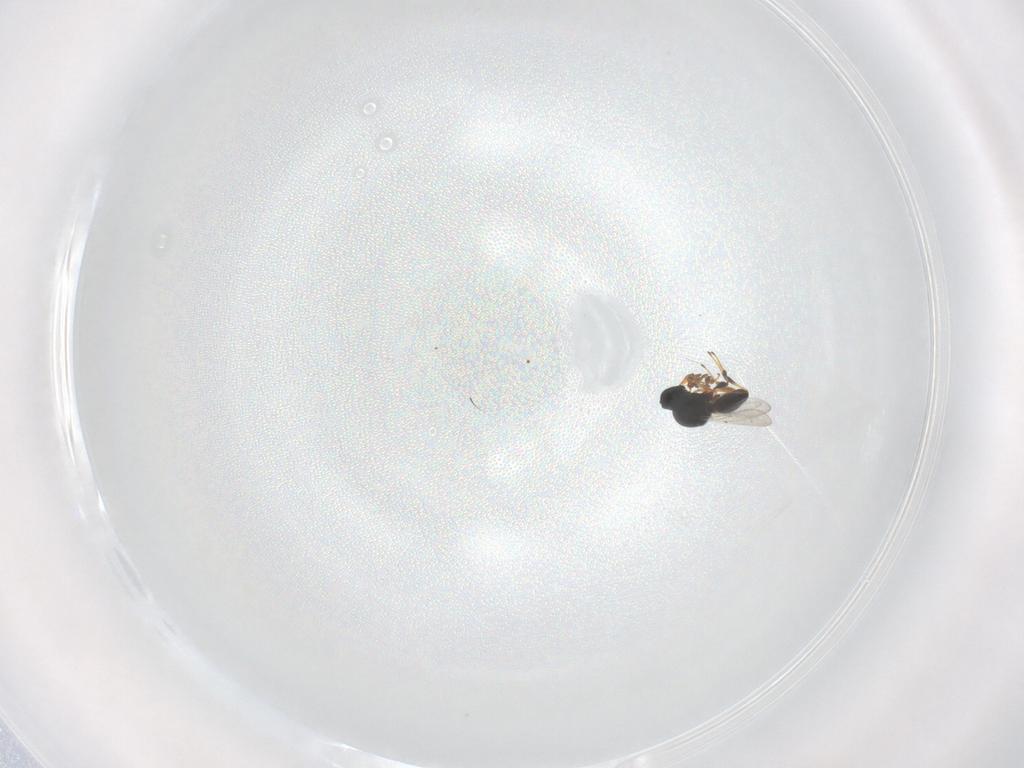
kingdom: Animalia
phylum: Arthropoda
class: Insecta
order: Hymenoptera
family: Platygastridae
